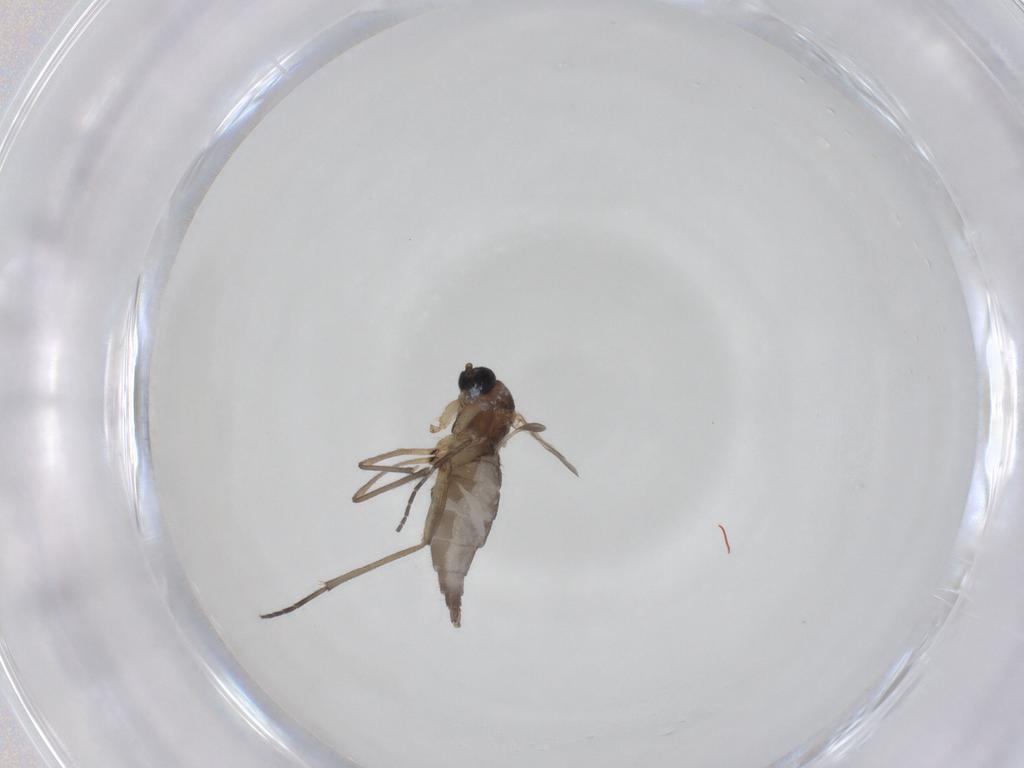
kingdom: Animalia
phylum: Arthropoda
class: Insecta
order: Diptera
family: Sciaridae
